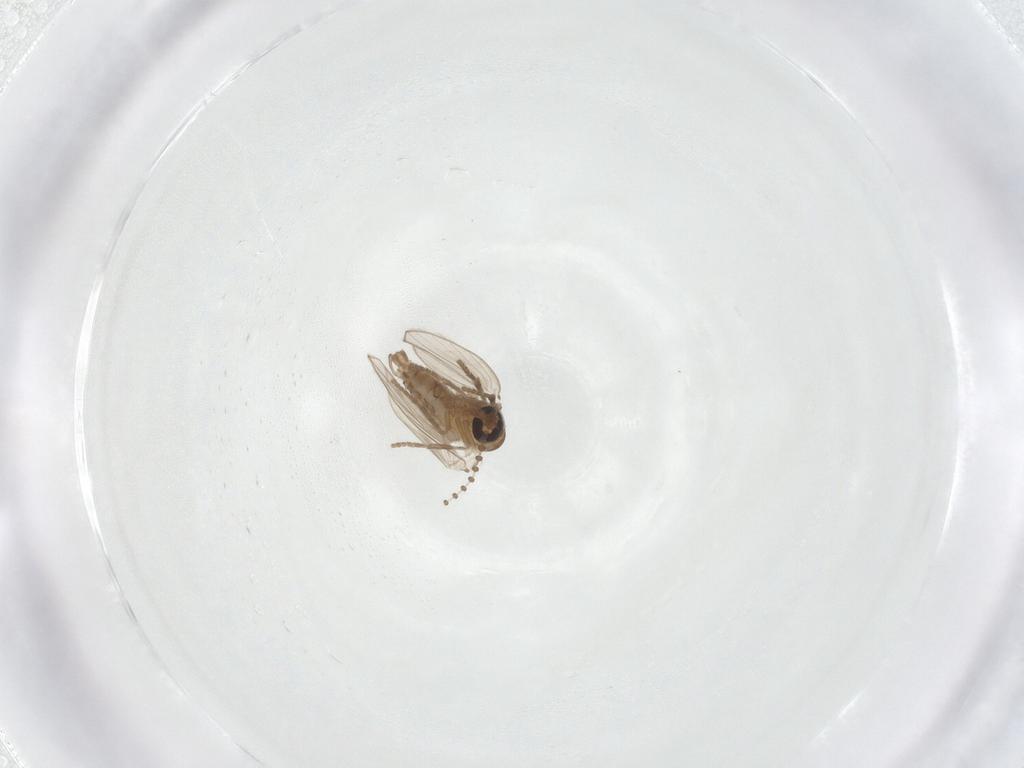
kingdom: Animalia
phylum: Arthropoda
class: Insecta
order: Diptera
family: Psychodidae
